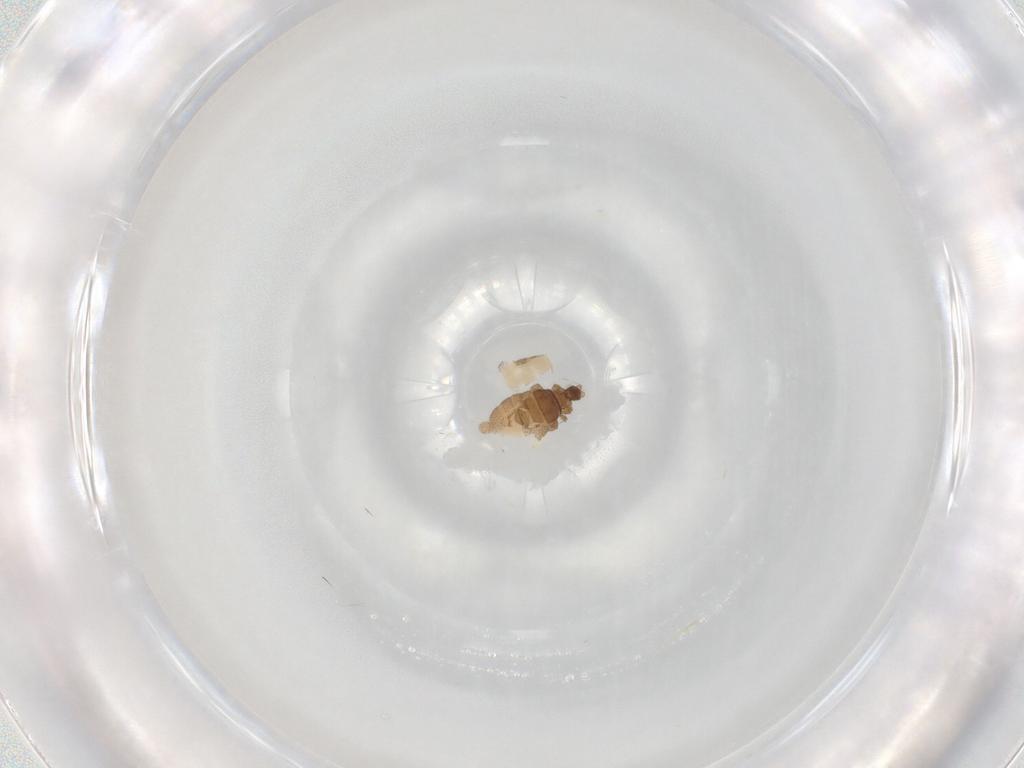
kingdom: Animalia
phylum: Arthropoda
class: Insecta
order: Diptera
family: Phoridae
